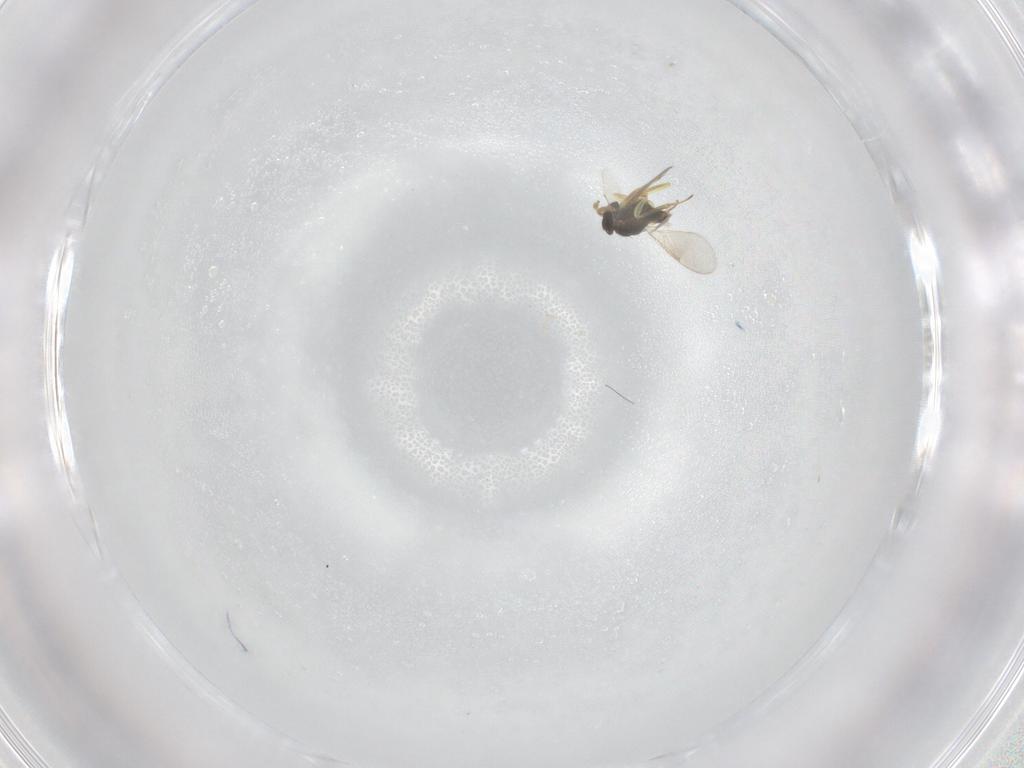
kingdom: Animalia
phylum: Arthropoda
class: Insecta
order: Hymenoptera
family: Aphelinidae
